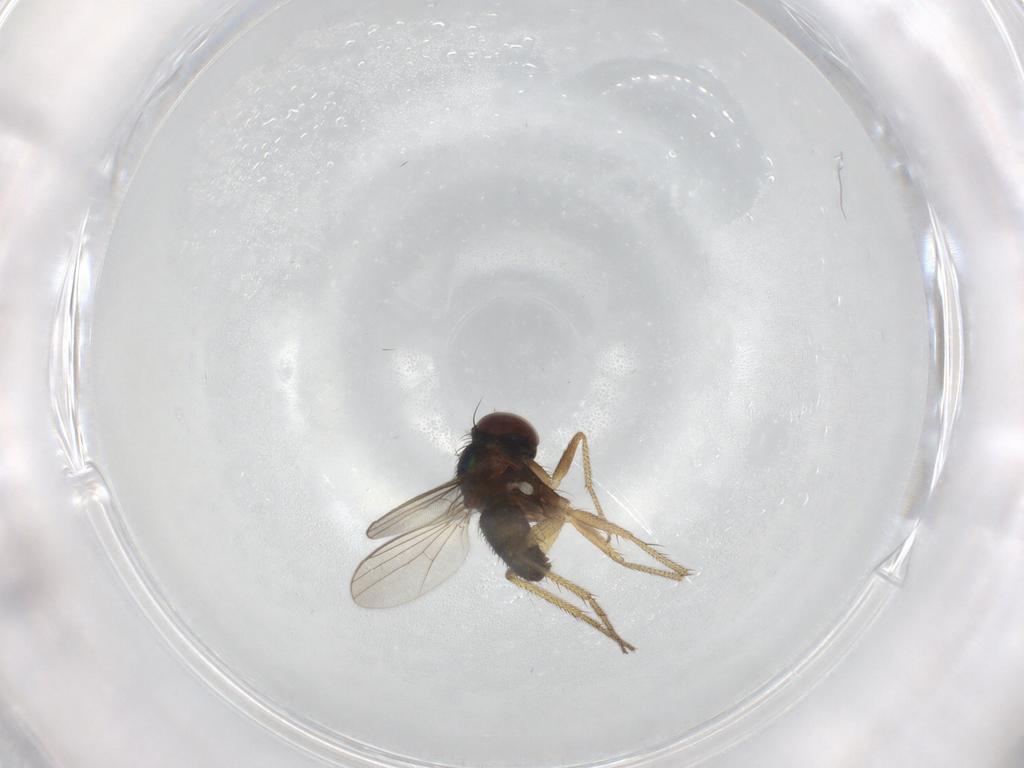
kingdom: Animalia
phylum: Arthropoda
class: Insecta
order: Diptera
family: Dolichopodidae
